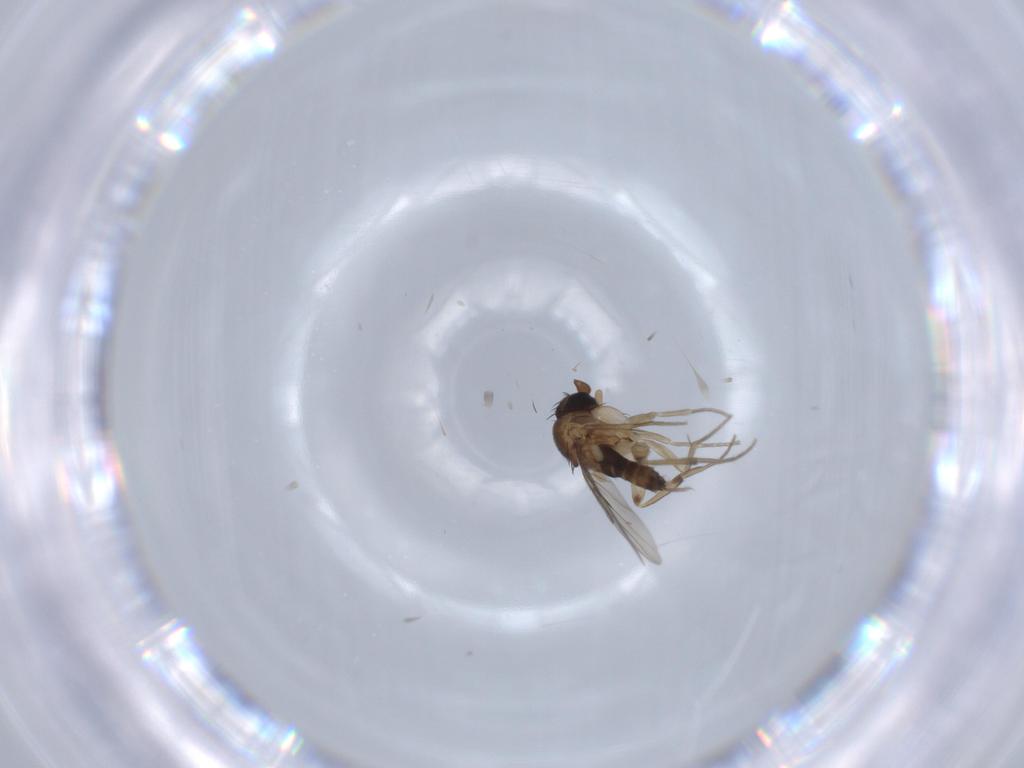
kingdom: Animalia
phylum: Arthropoda
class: Insecta
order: Diptera
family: Phoridae
